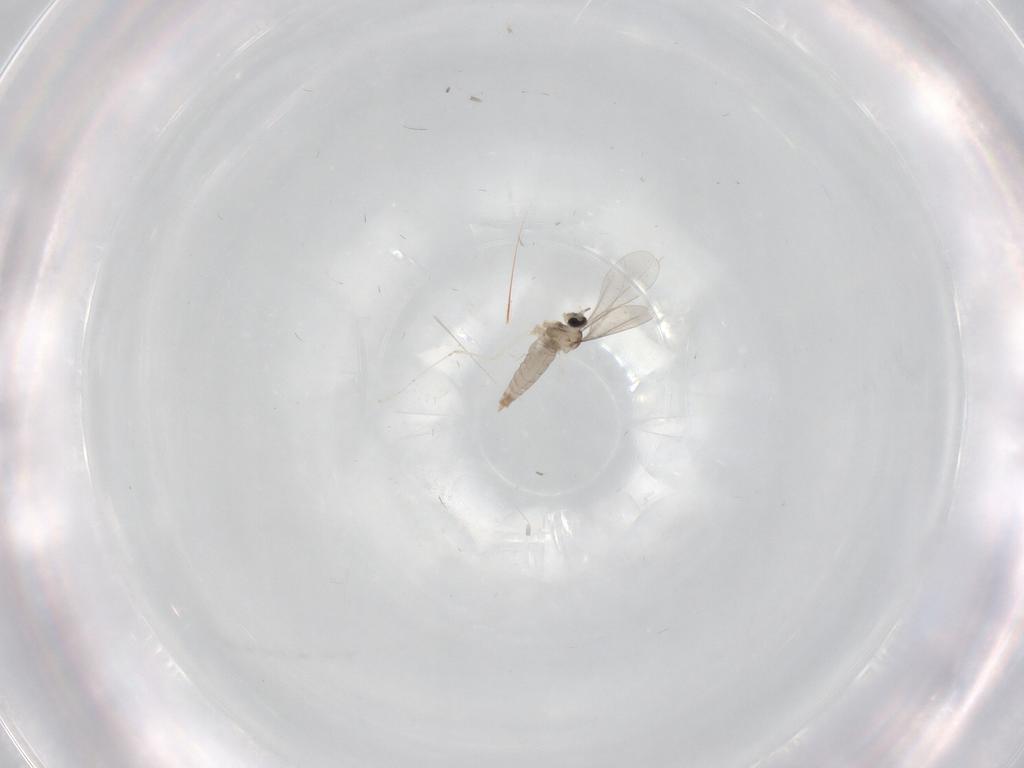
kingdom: Animalia
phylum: Arthropoda
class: Insecta
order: Diptera
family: Cecidomyiidae
